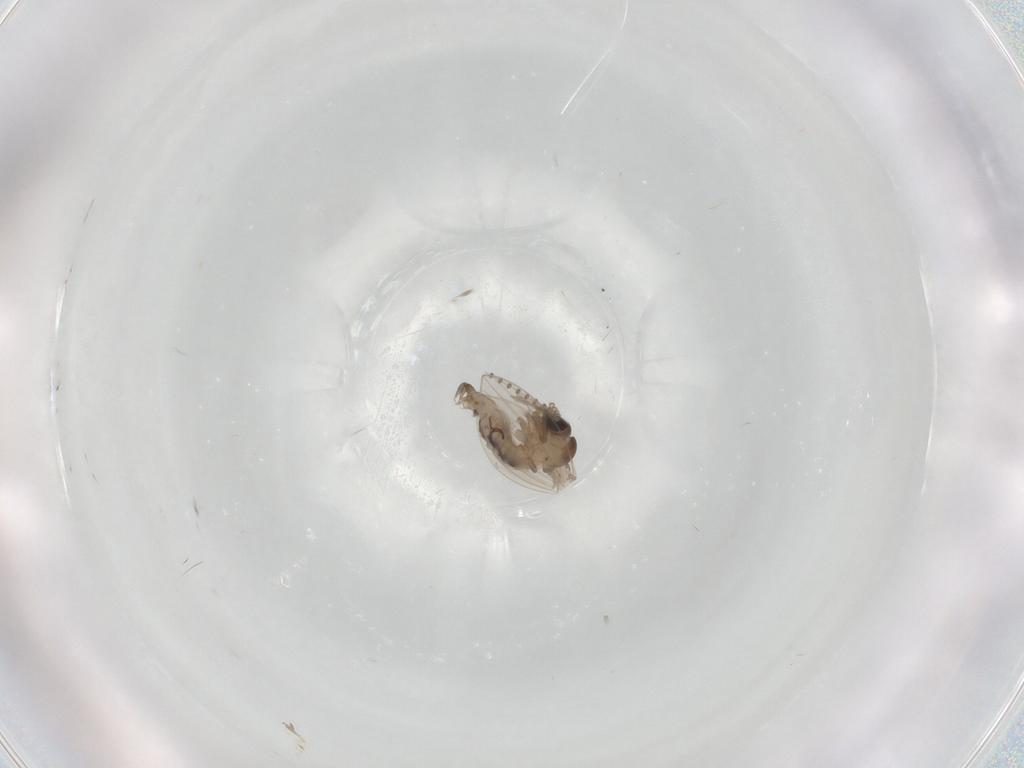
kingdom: Animalia
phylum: Arthropoda
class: Insecta
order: Diptera
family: Psychodidae
